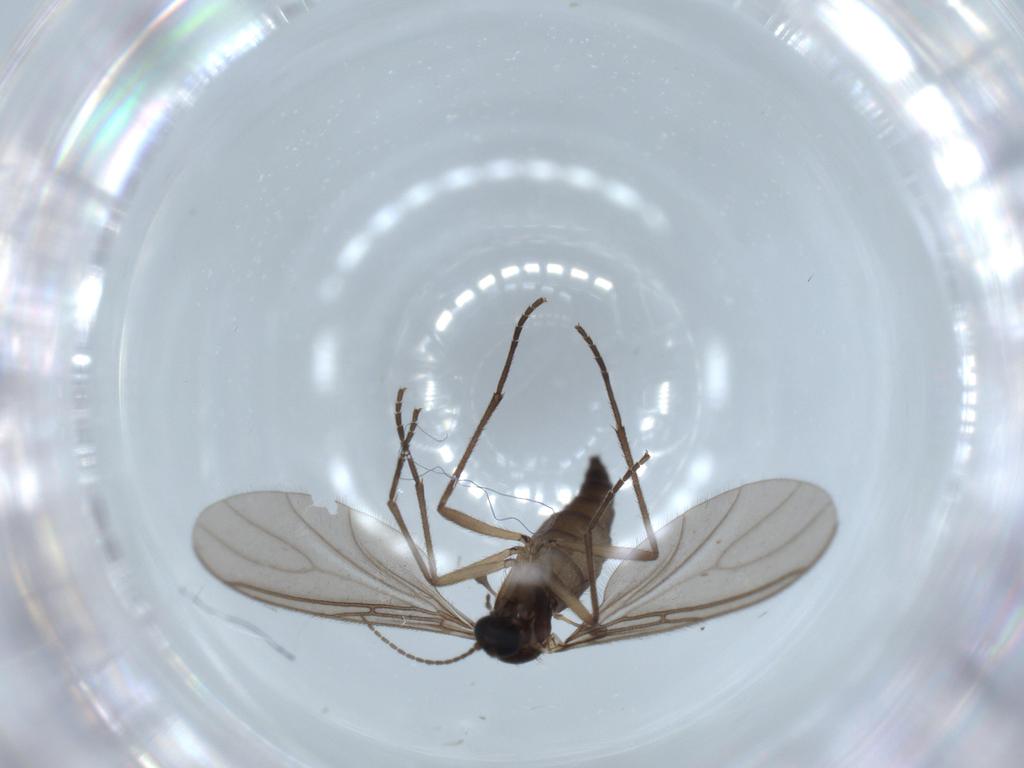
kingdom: Animalia
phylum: Arthropoda
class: Insecta
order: Diptera
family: Sciaridae
